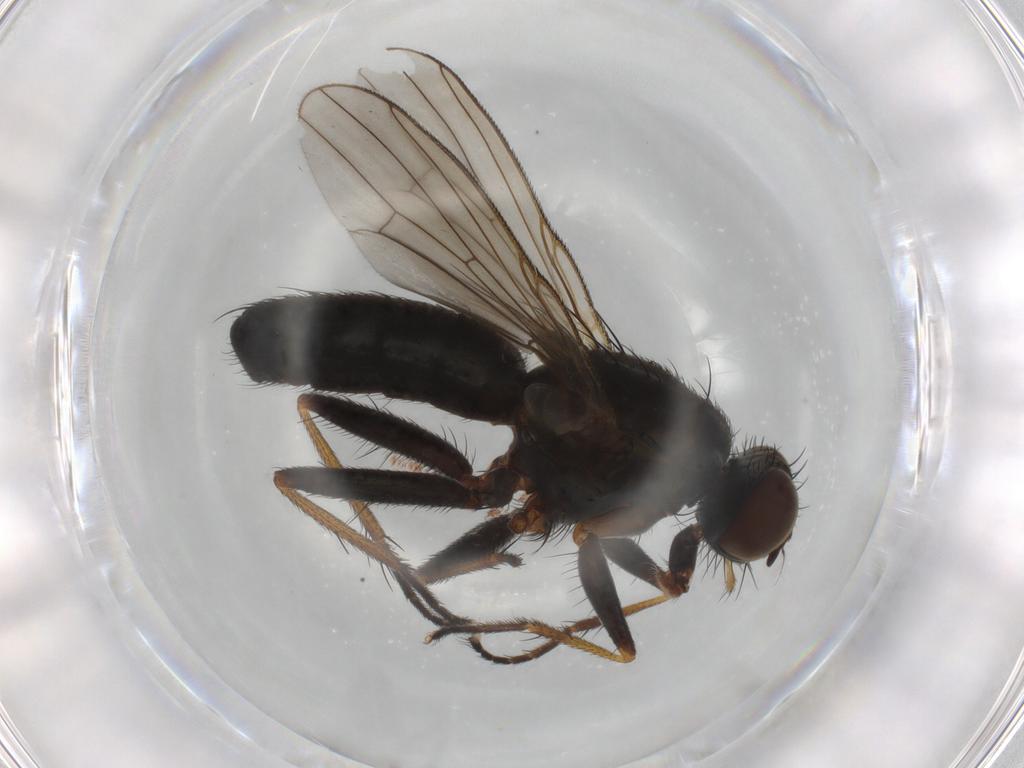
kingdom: Animalia
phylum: Arthropoda
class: Insecta
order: Diptera
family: Muscidae
